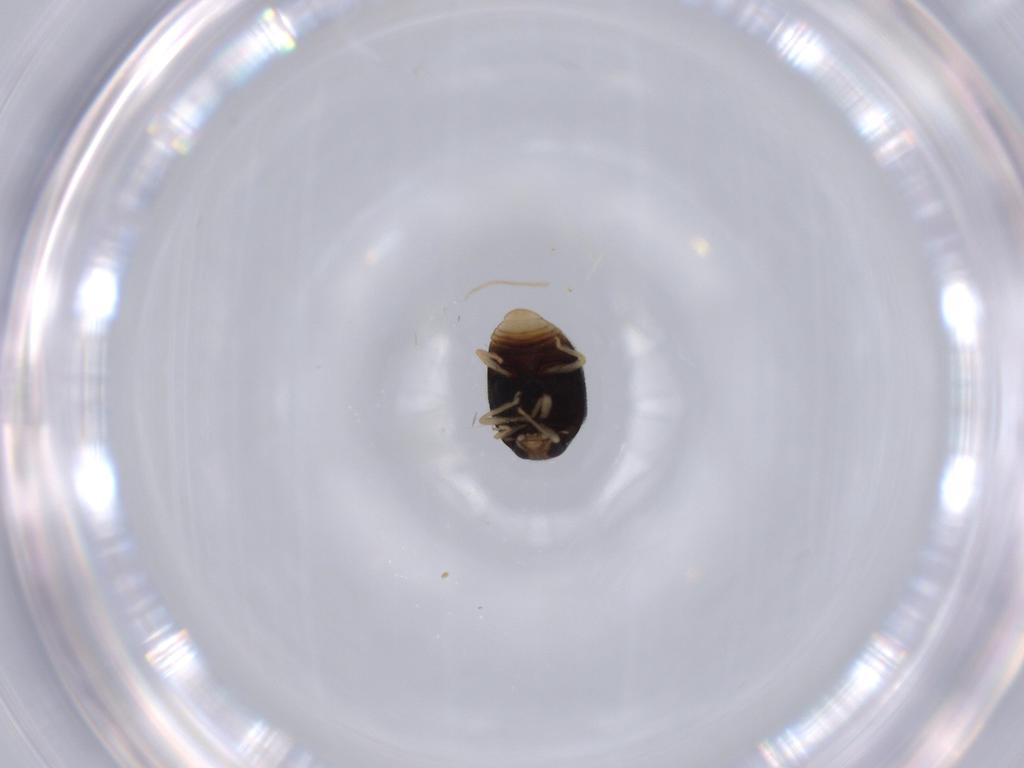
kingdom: Animalia
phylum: Arthropoda
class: Insecta
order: Coleoptera
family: Coccinellidae
